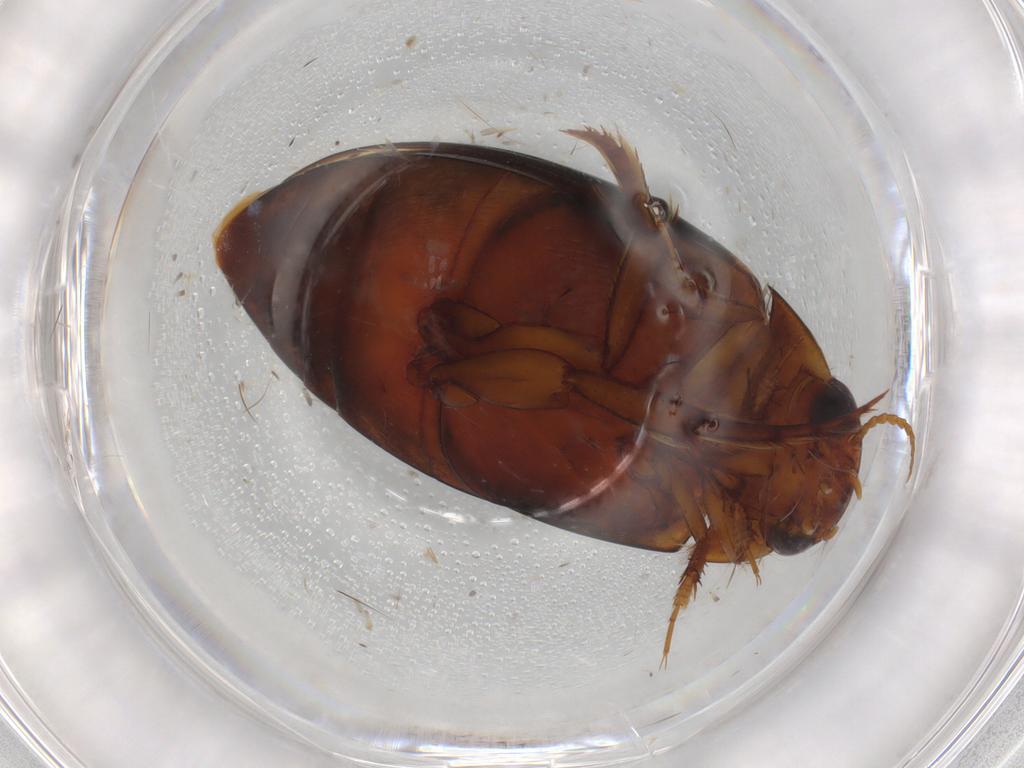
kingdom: Animalia
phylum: Arthropoda
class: Insecta
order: Coleoptera
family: Dytiscidae
